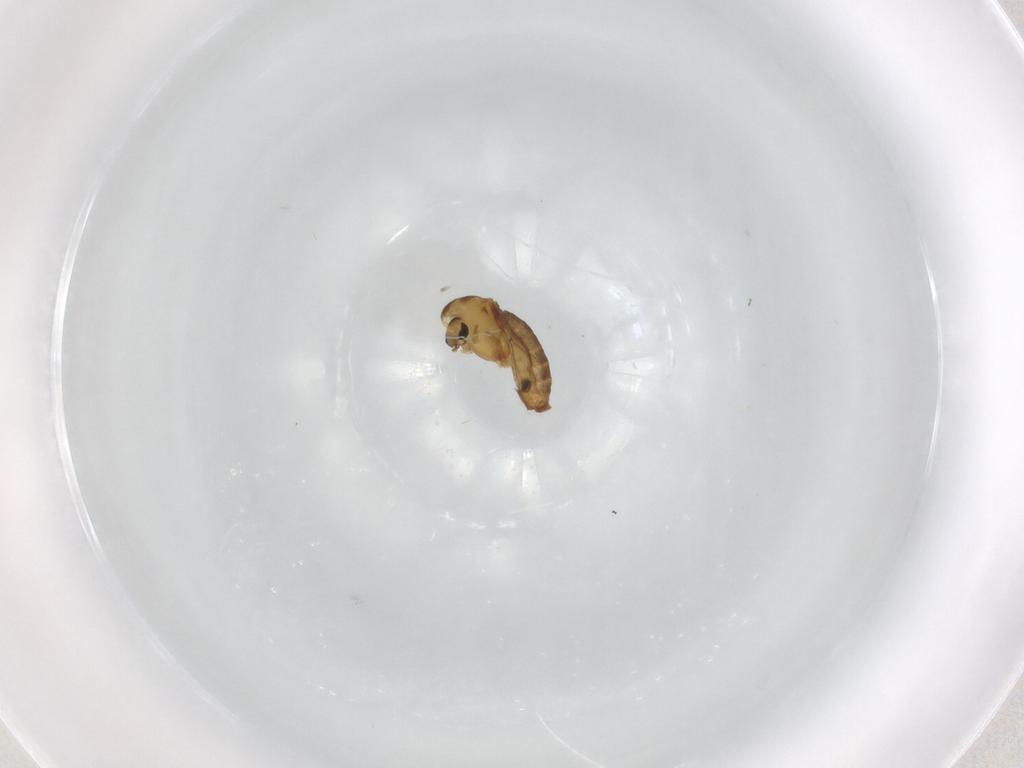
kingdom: Animalia
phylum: Arthropoda
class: Insecta
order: Diptera
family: Chironomidae
